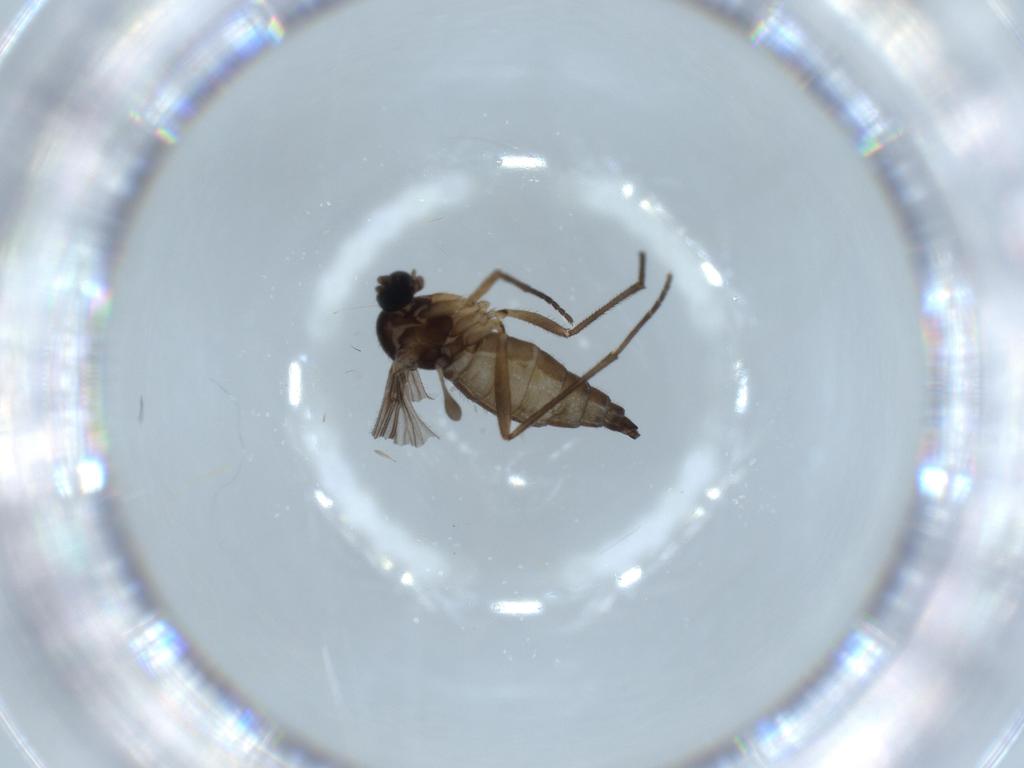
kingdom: Animalia
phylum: Arthropoda
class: Insecta
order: Diptera
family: Sciaridae
